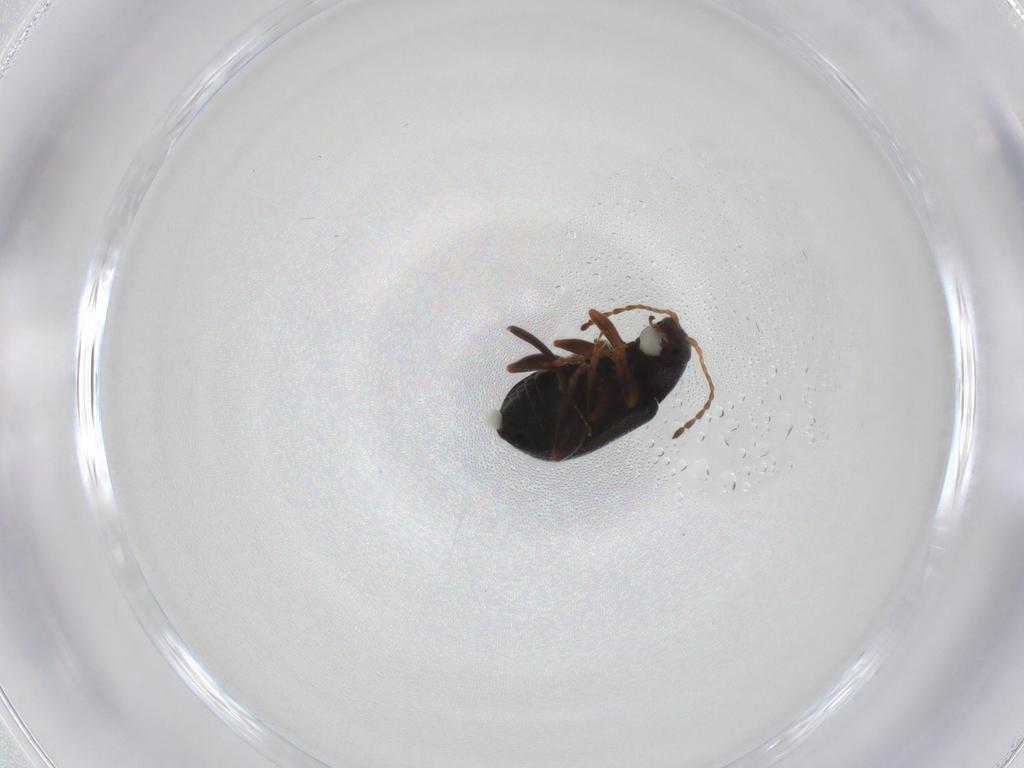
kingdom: Animalia
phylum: Arthropoda
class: Insecta
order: Coleoptera
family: Chrysomelidae
